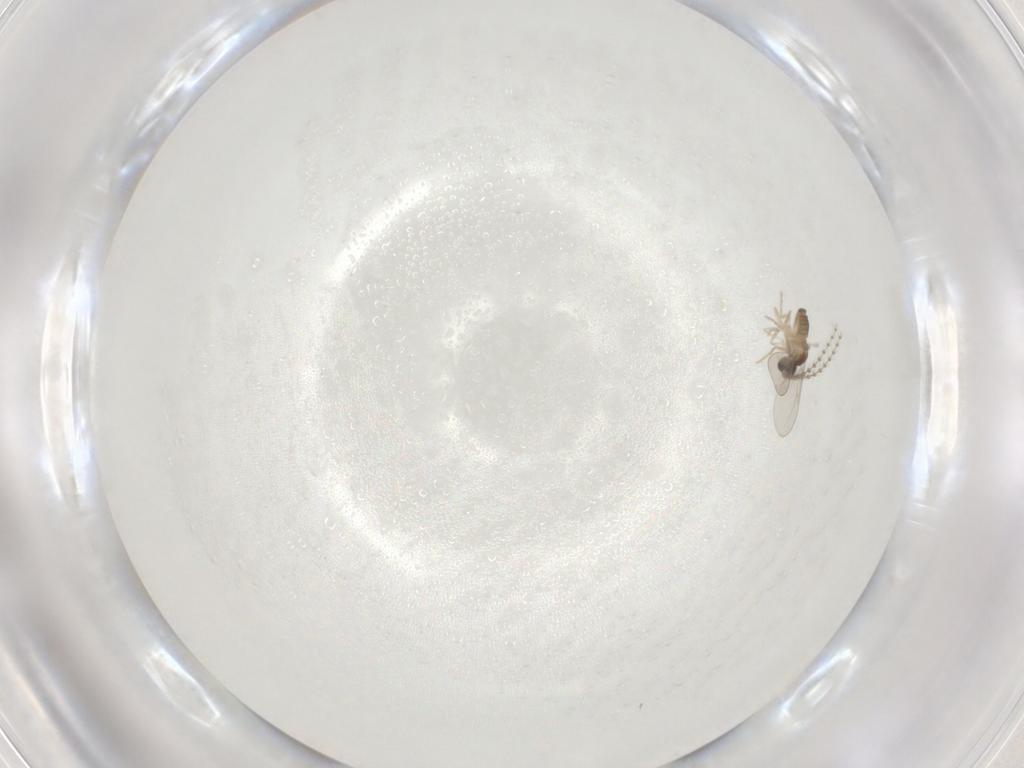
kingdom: Animalia
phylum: Arthropoda
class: Insecta
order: Diptera
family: Cecidomyiidae
